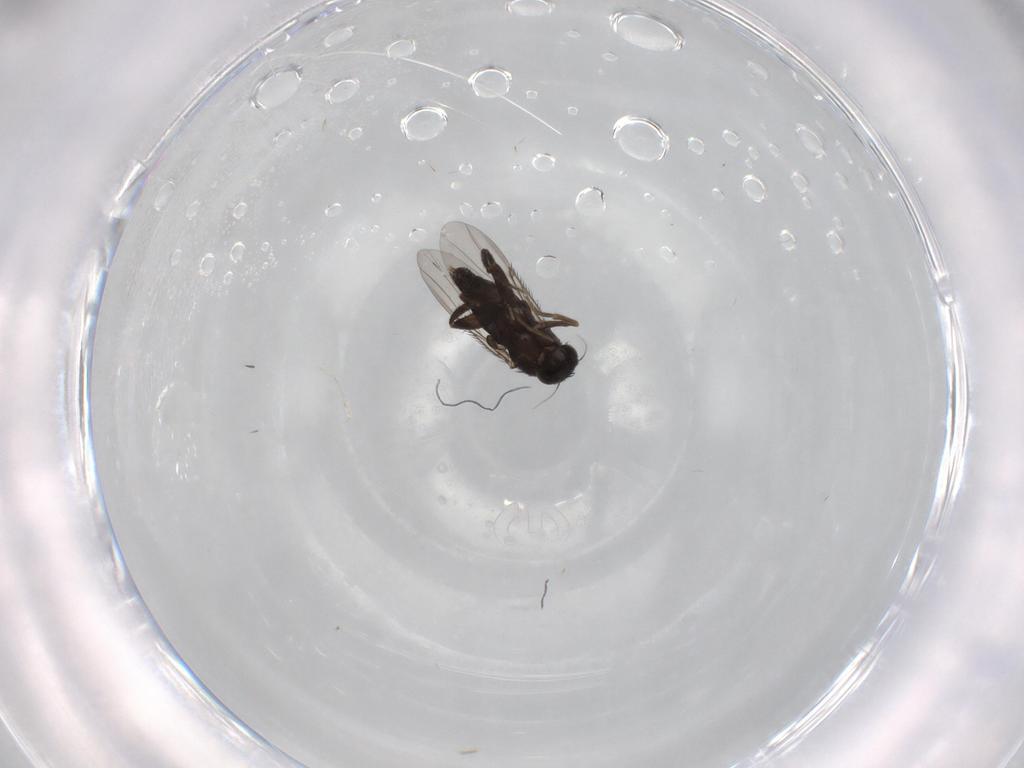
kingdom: Animalia
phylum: Arthropoda
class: Insecta
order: Diptera
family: Phoridae
